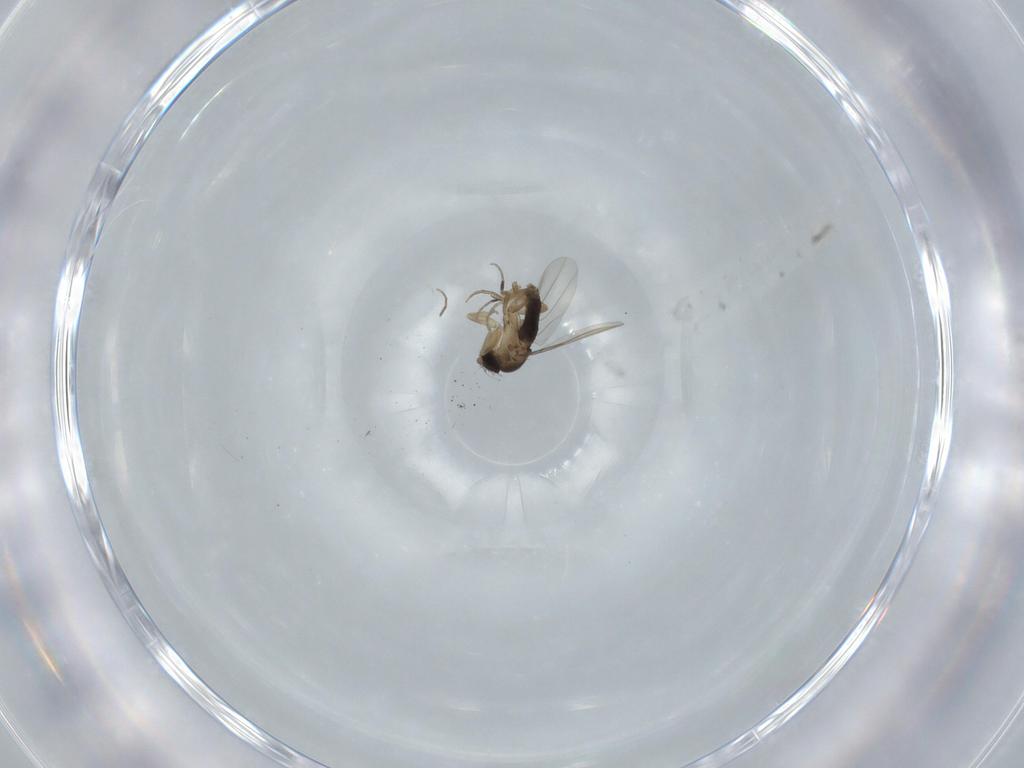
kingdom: Animalia
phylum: Arthropoda
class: Insecta
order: Diptera
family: Phoridae
